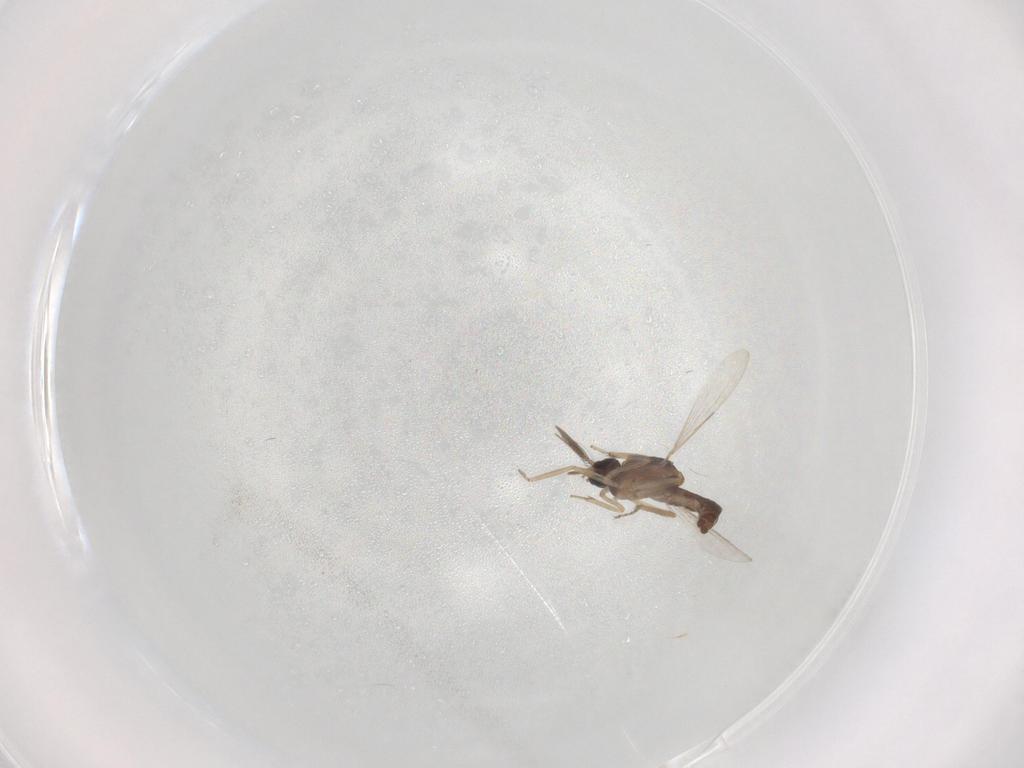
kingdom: Animalia
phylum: Arthropoda
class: Insecta
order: Diptera
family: Ceratopogonidae
